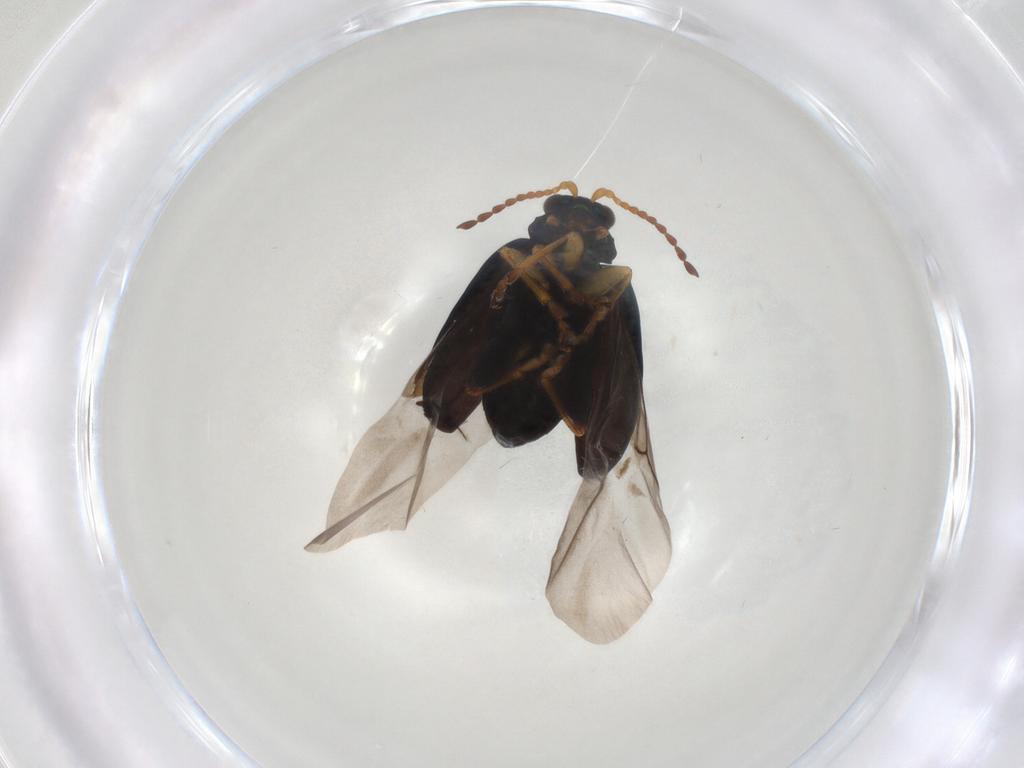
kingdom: Animalia
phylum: Arthropoda
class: Insecta
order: Coleoptera
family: Chrysomelidae
